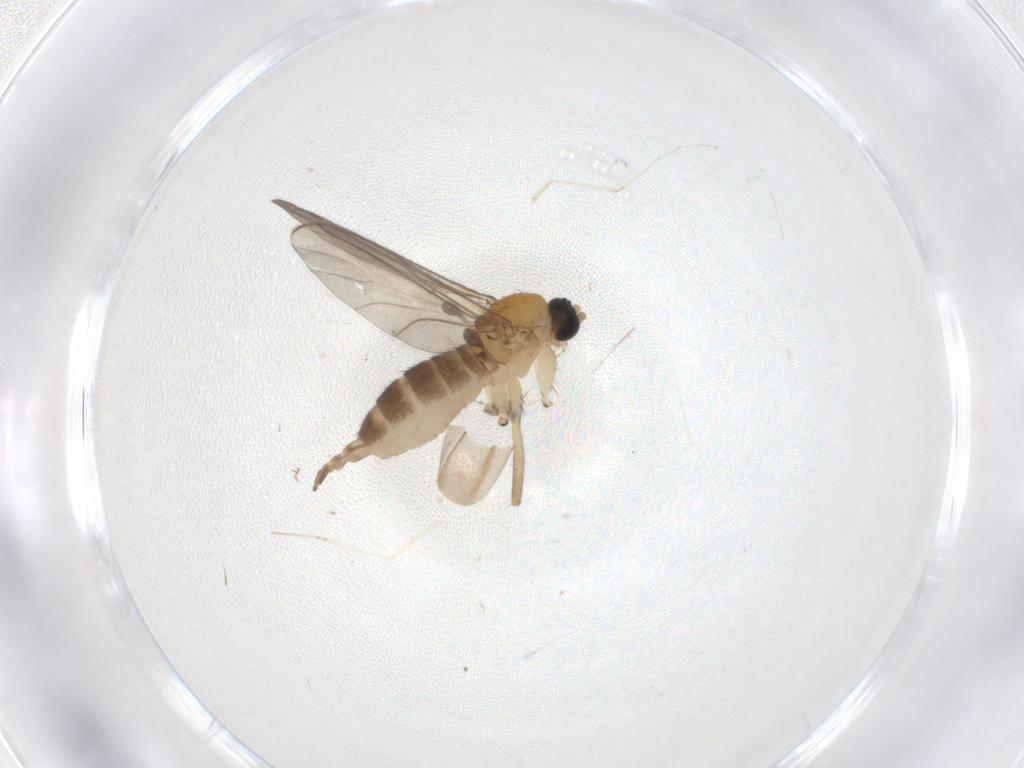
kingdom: Animalia
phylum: Arthropoda
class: Insecta
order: Diptera
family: Sciaridae
